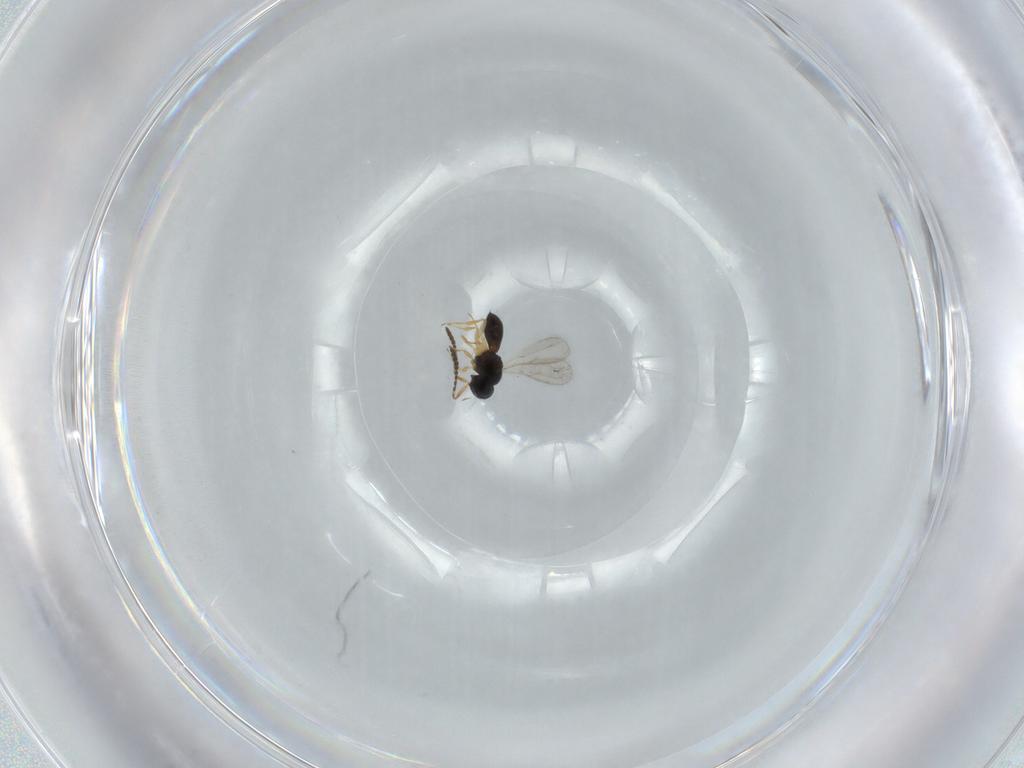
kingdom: Animalia
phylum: Arthropoda
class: Insecta
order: Hymenoptera
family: Scelionidae
